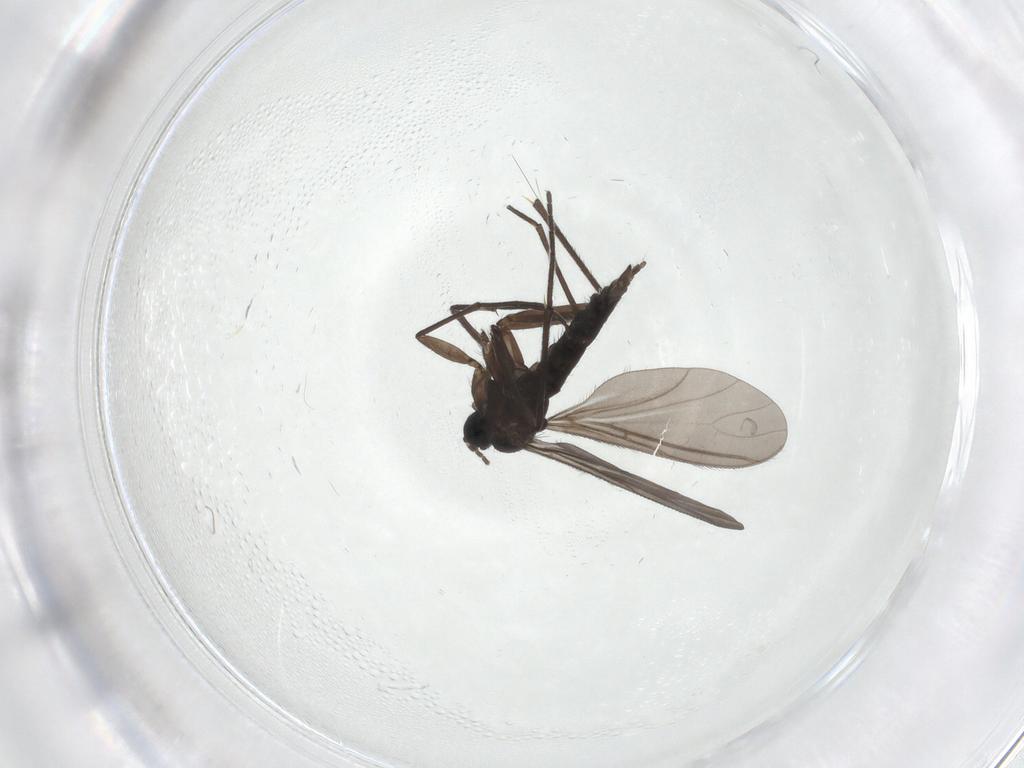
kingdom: Animalia
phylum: Arthropoda
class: Insecta
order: Diptera
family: Sciaridae
